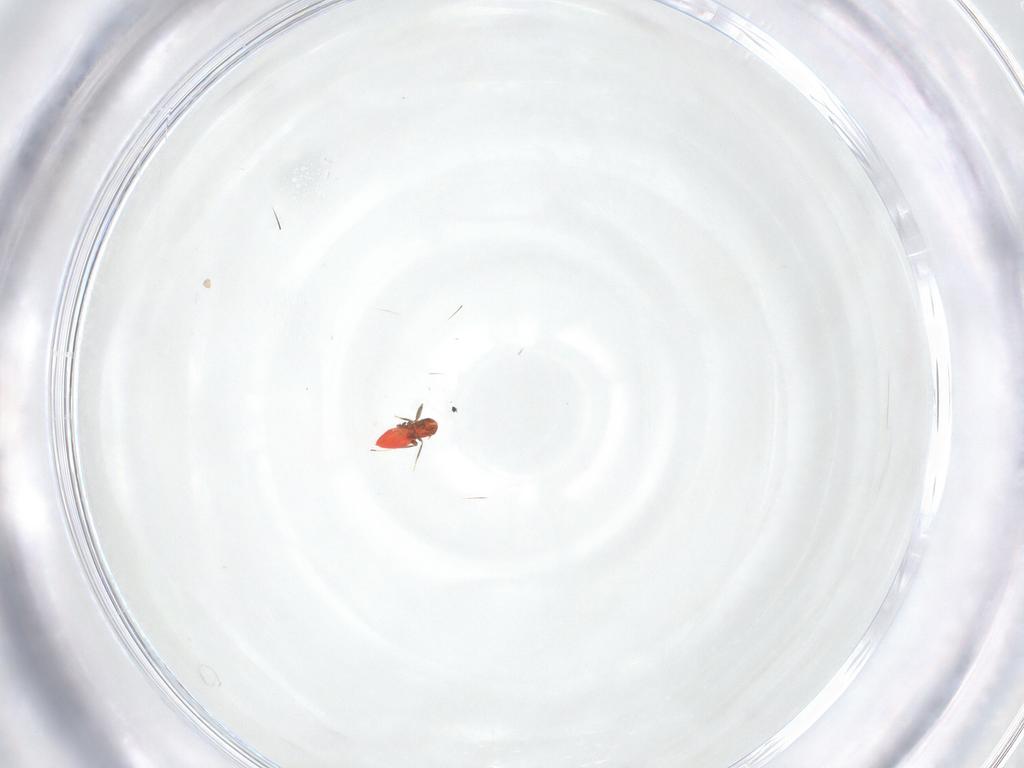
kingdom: Animalia
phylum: Arthropoda
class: Insecta
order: Hymenoptera
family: Trichogrammatidae
